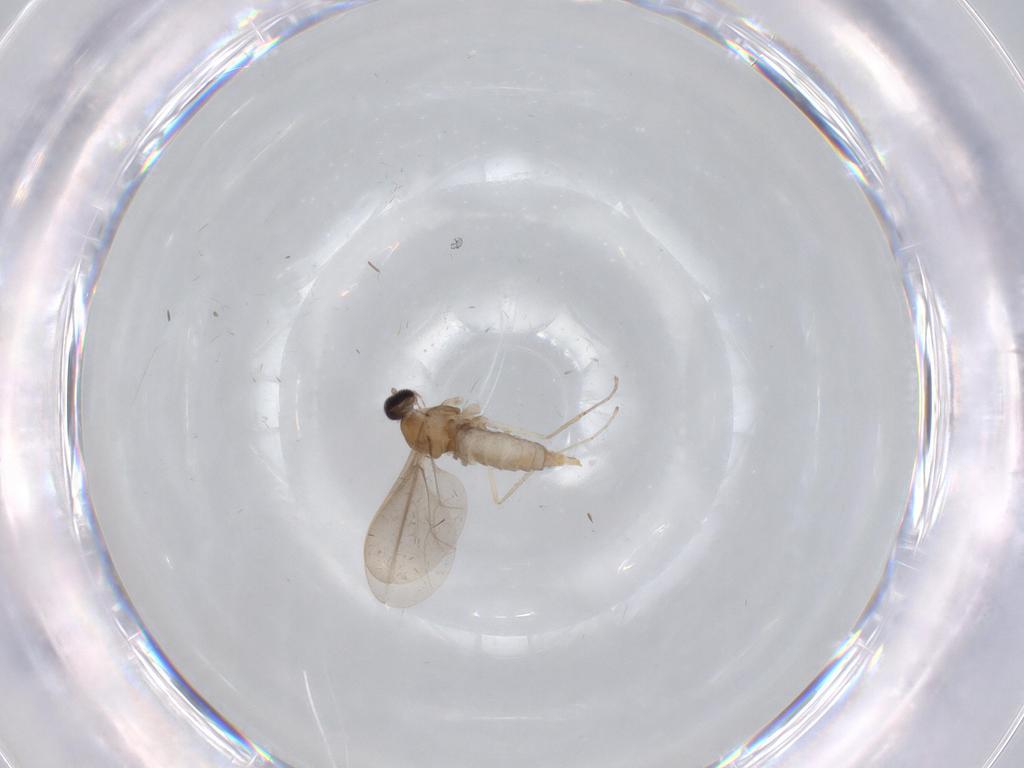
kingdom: Animalia
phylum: Arthropoda
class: Insecta
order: Diptera
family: Cecidomyiidae
